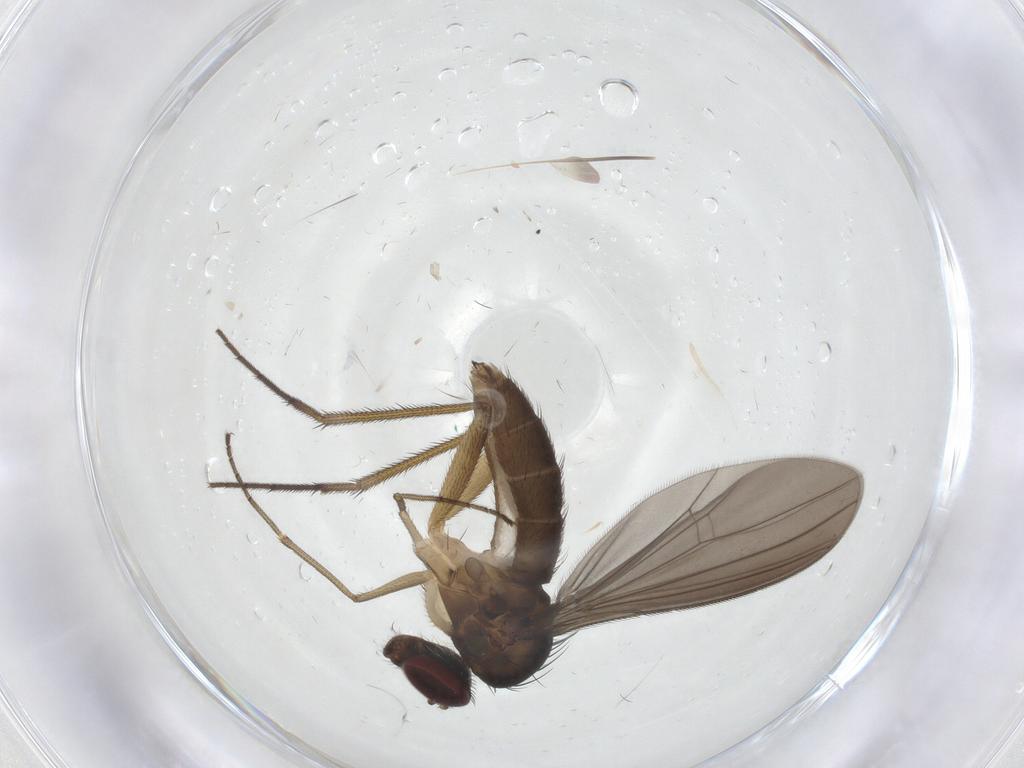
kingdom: Animalia
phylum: Arthropoda
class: Insecta
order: Diptera
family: Dolichopodidae
